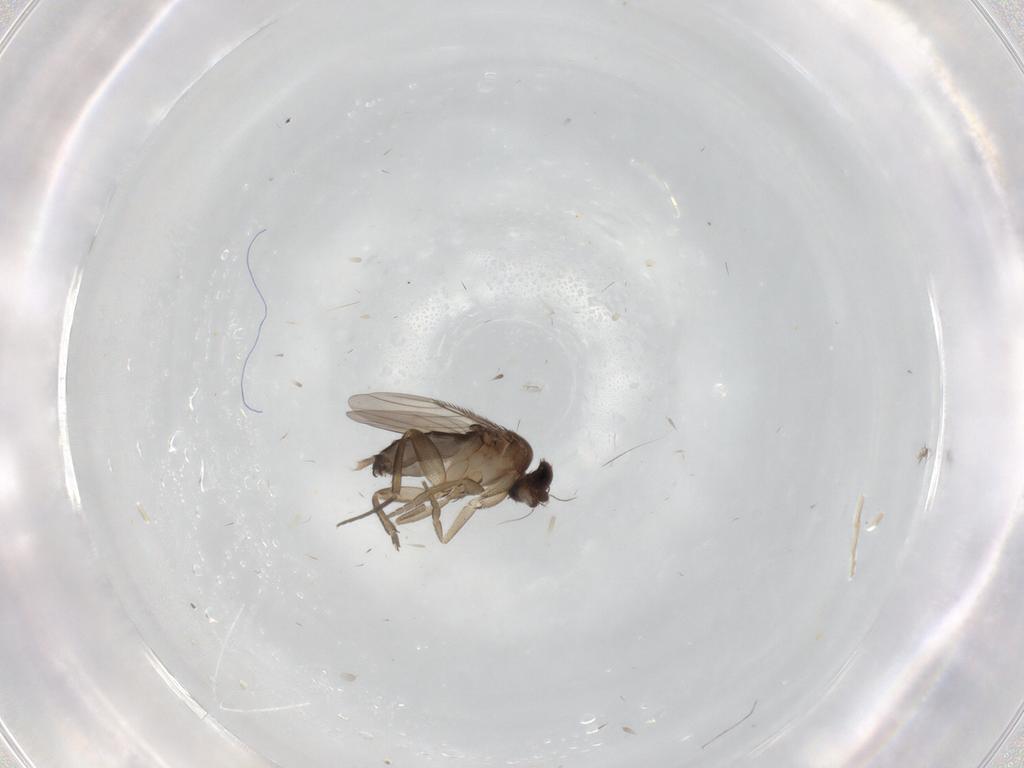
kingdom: Animalia
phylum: Arthropoda
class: Insecta
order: Diptera
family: Phoridae
